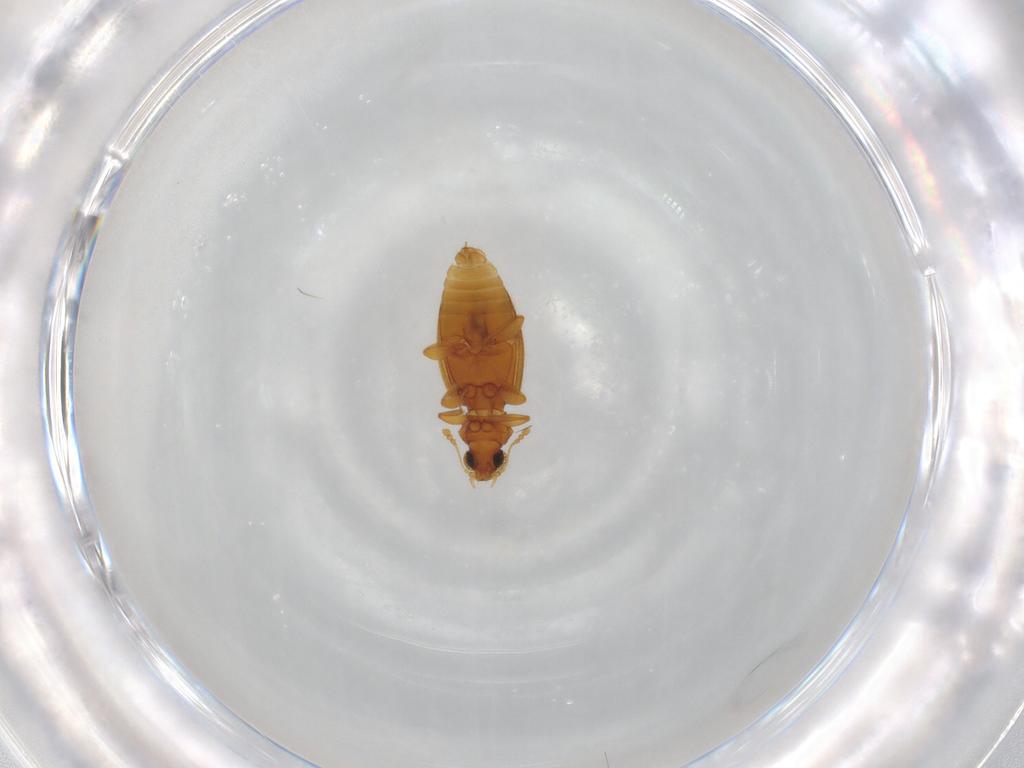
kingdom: Animalia
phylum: Arthropoda
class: Insecta
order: Coleoptera
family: Latridiidae
